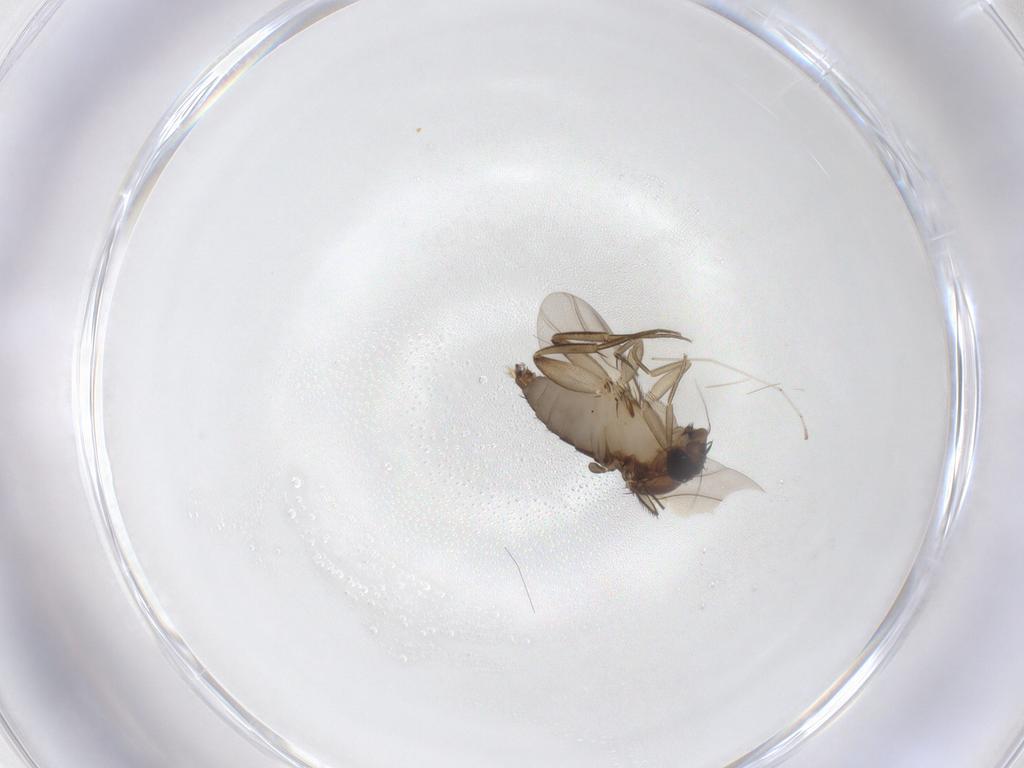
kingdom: Animalia
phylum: Arthropoda
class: Insecta
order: Diptera
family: Phoridae
